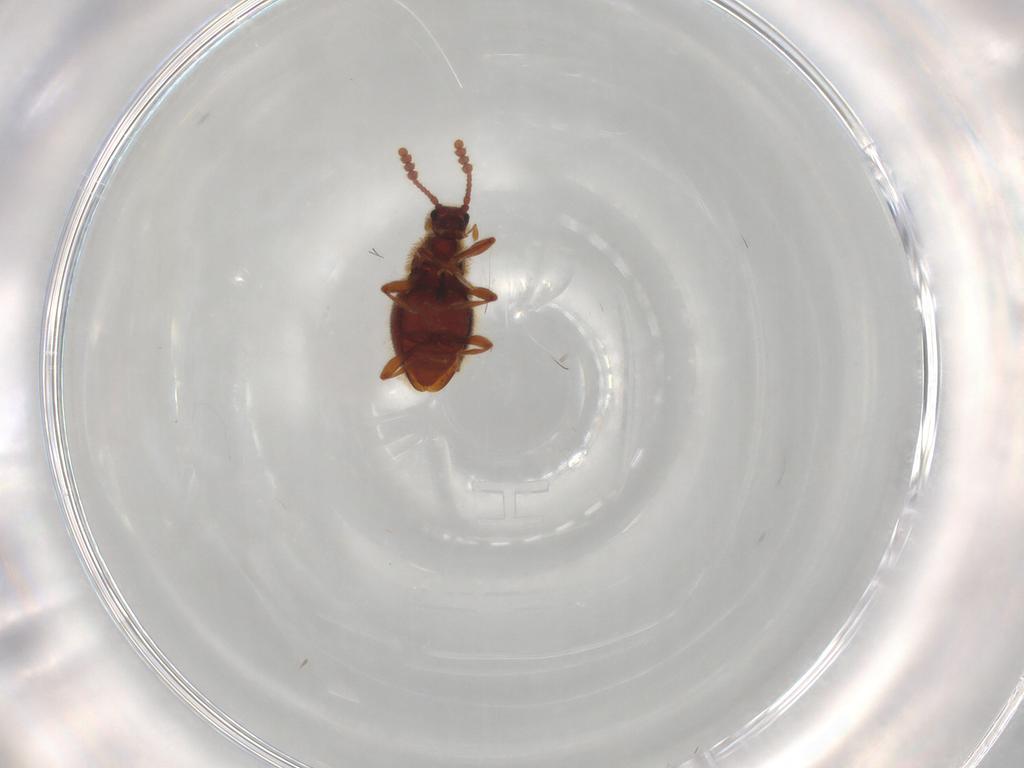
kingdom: Animalia
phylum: Arthropoda
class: Insecta
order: Coleoptera
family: Staphylinidae
